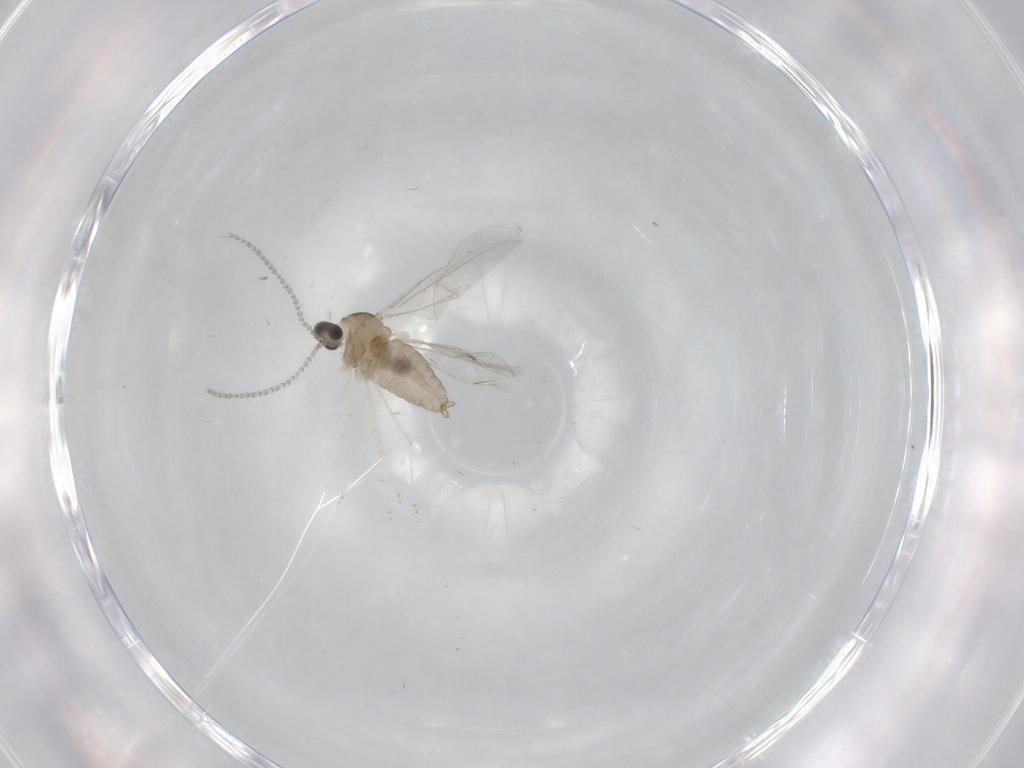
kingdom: Animalia
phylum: Arthropoda
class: Insecta
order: Diptera
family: Cecidomyiidae
